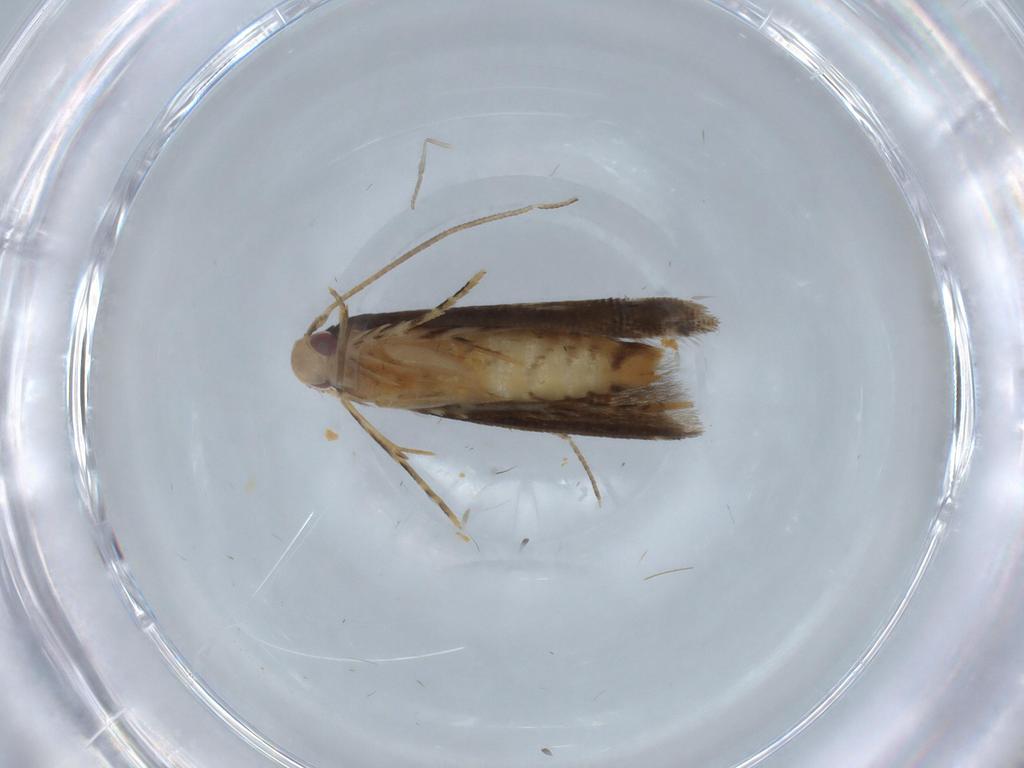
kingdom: Animalia
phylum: Arthropoda
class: Insecta
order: Lepidoptera
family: Momphidae
